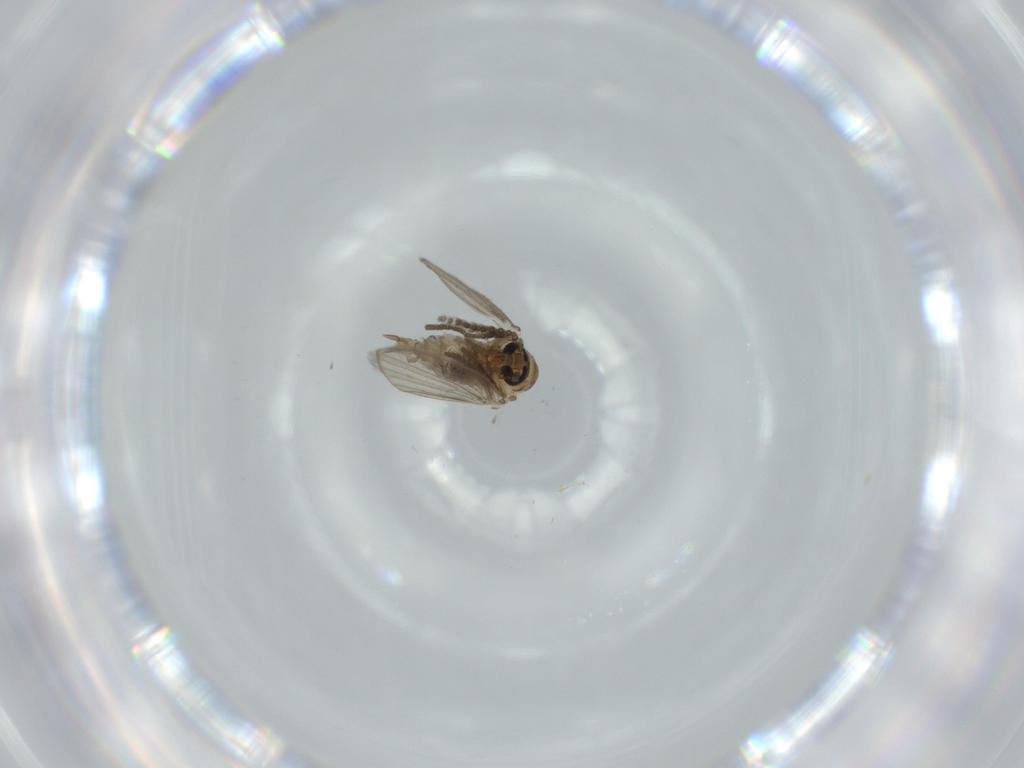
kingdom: Animalia
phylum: Arthropoda
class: Insecta
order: Diptera
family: Psychodidae
